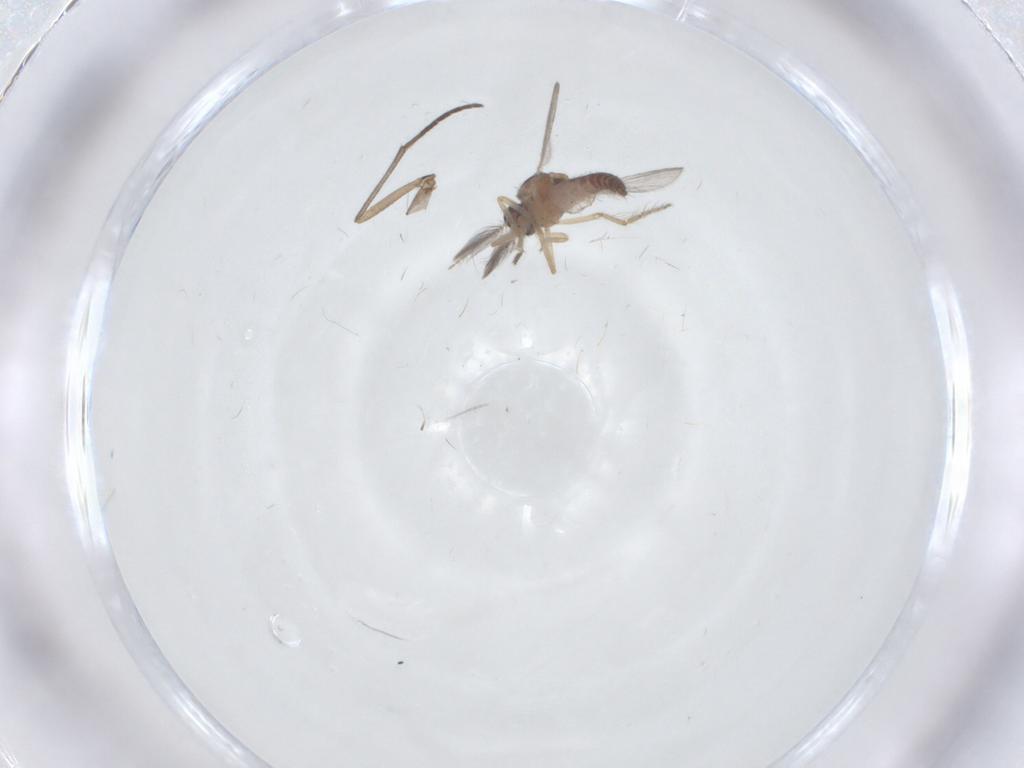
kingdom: Animalia
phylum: Arthropoda
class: Insecta
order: Diptera
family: Ceratopogonidae
